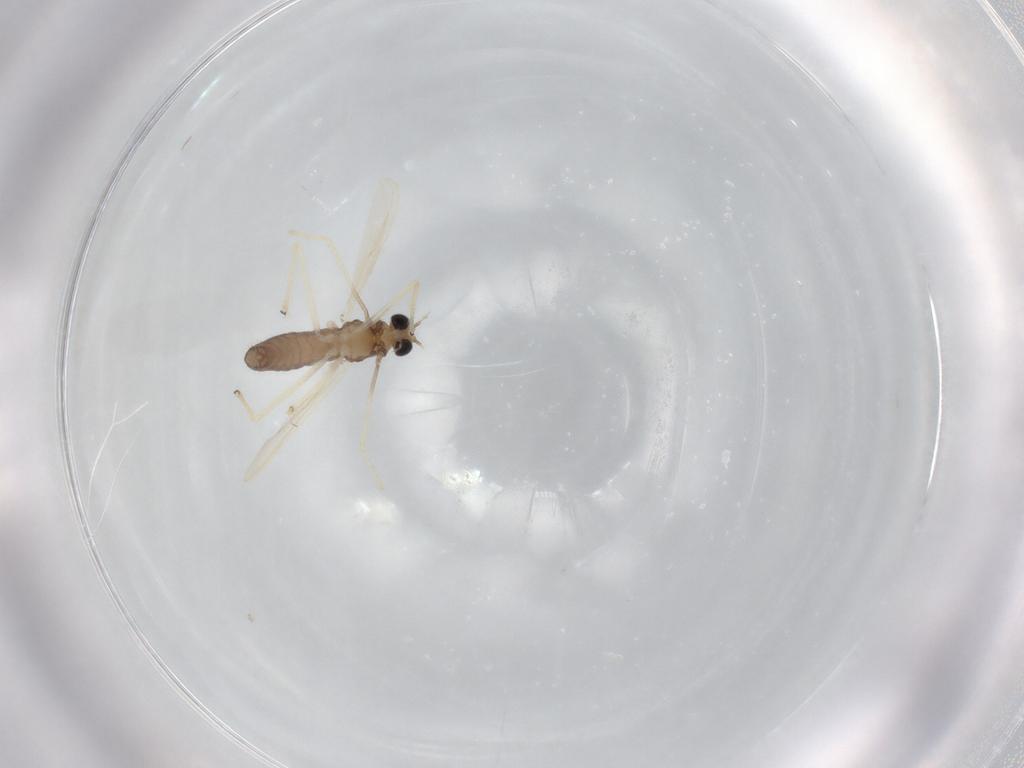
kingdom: Animalia
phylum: Arthropoda
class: Insecta
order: Diptera
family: Chironomidae
